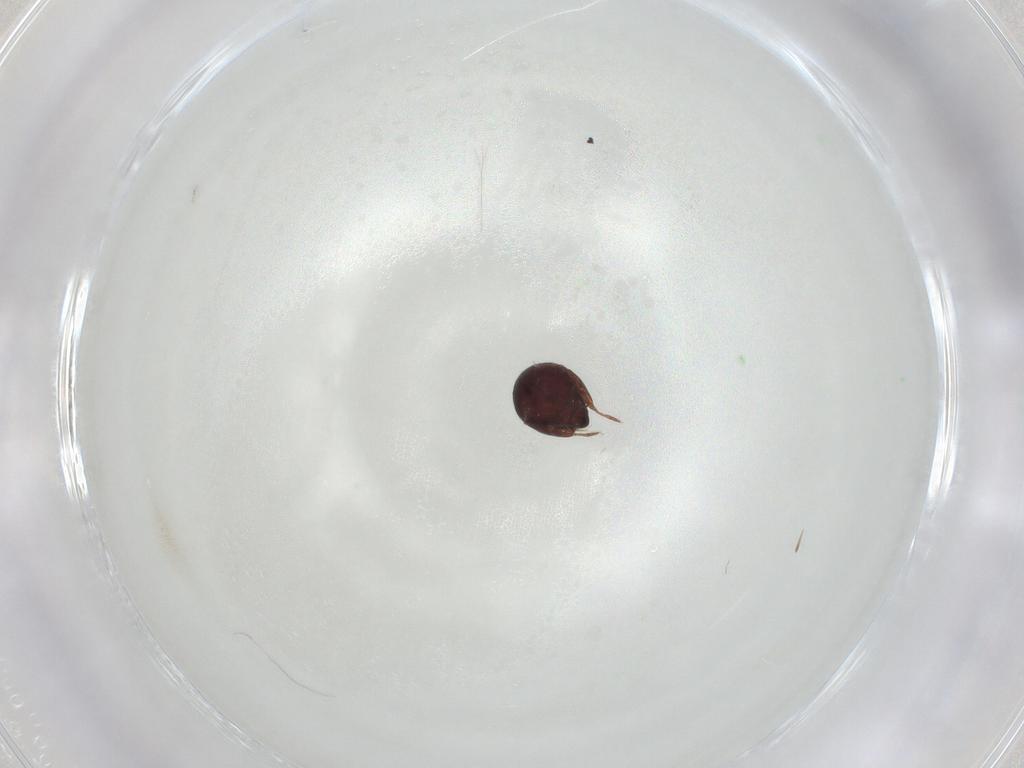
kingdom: Animalia
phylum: Arthropoda
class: Arachnida
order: Sarcoptiformes
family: Galumnidae
